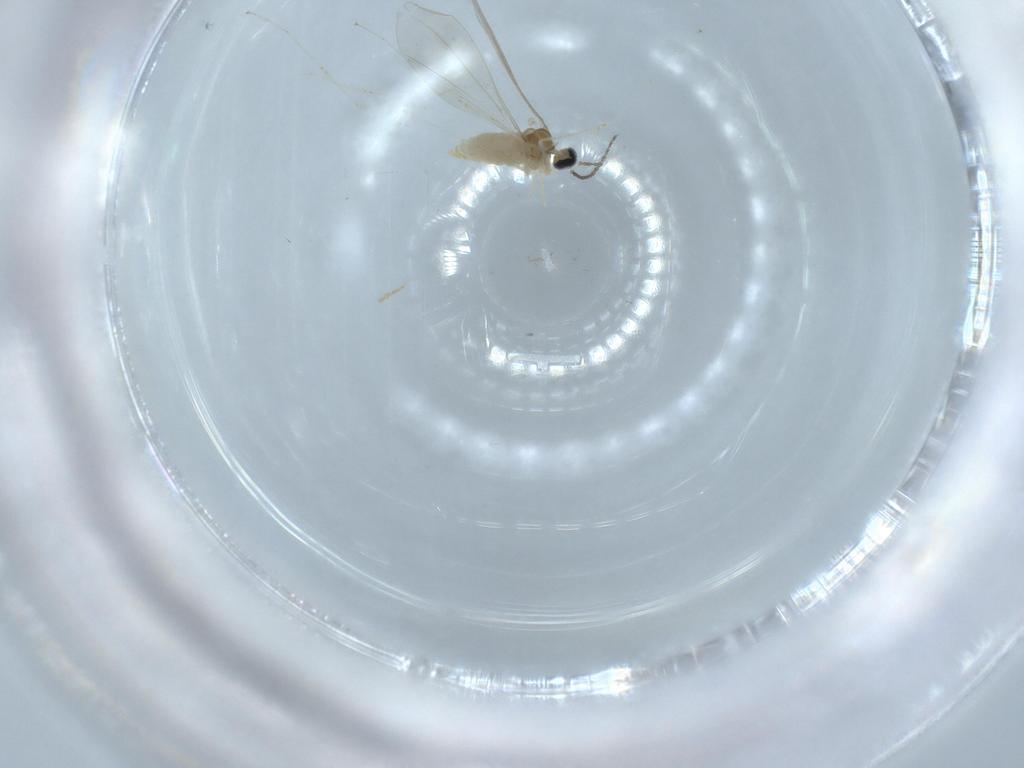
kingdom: Animalia
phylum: Arthropoda
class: Insecta
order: Diptera
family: Cecidomyiidae
